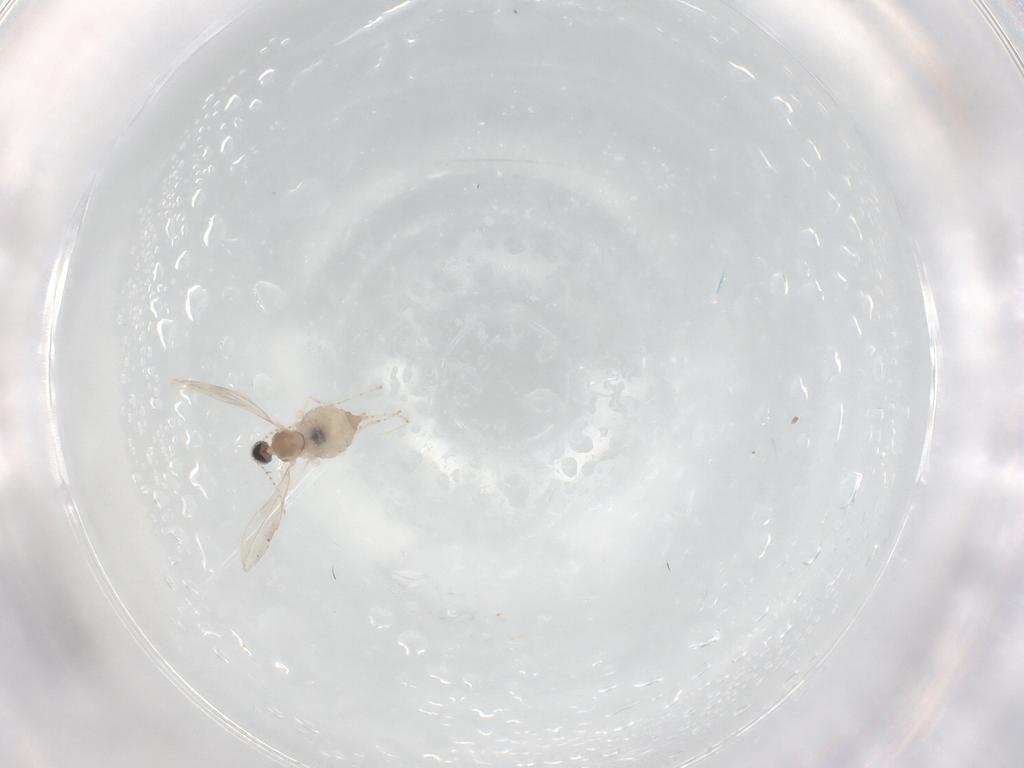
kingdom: Animalia
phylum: Arthropoda
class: Insecta
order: Diptera
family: Cecidomyiidae
